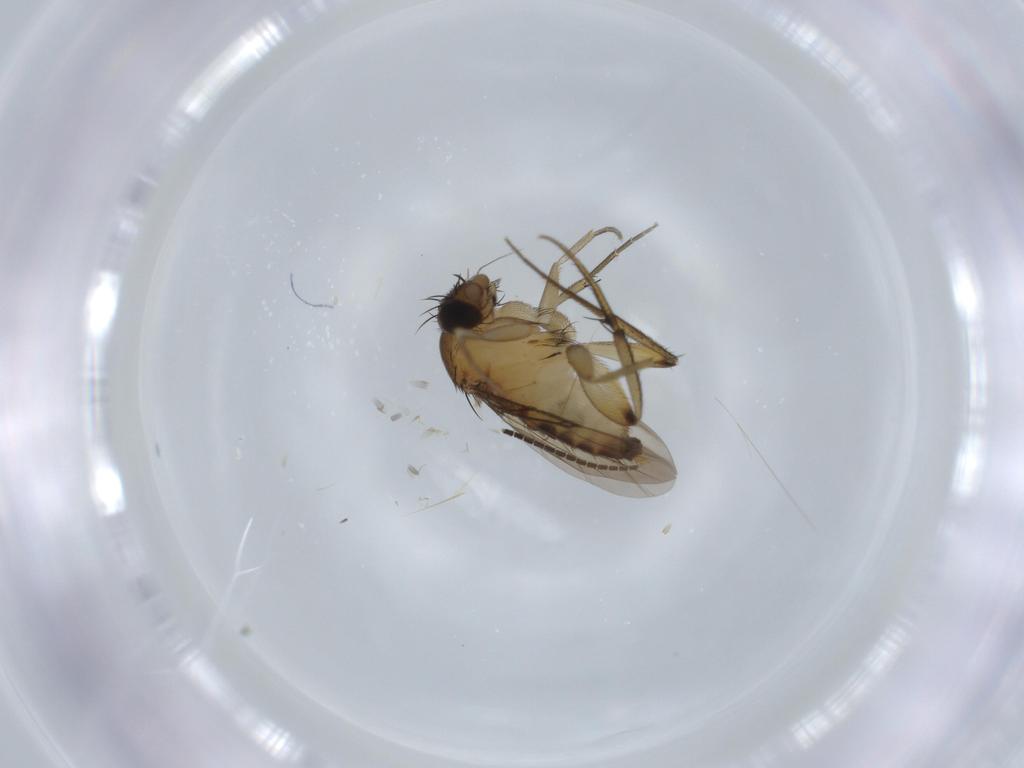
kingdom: Animalia
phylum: Arthropoda
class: Insecta
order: Diptera
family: Phoridae
